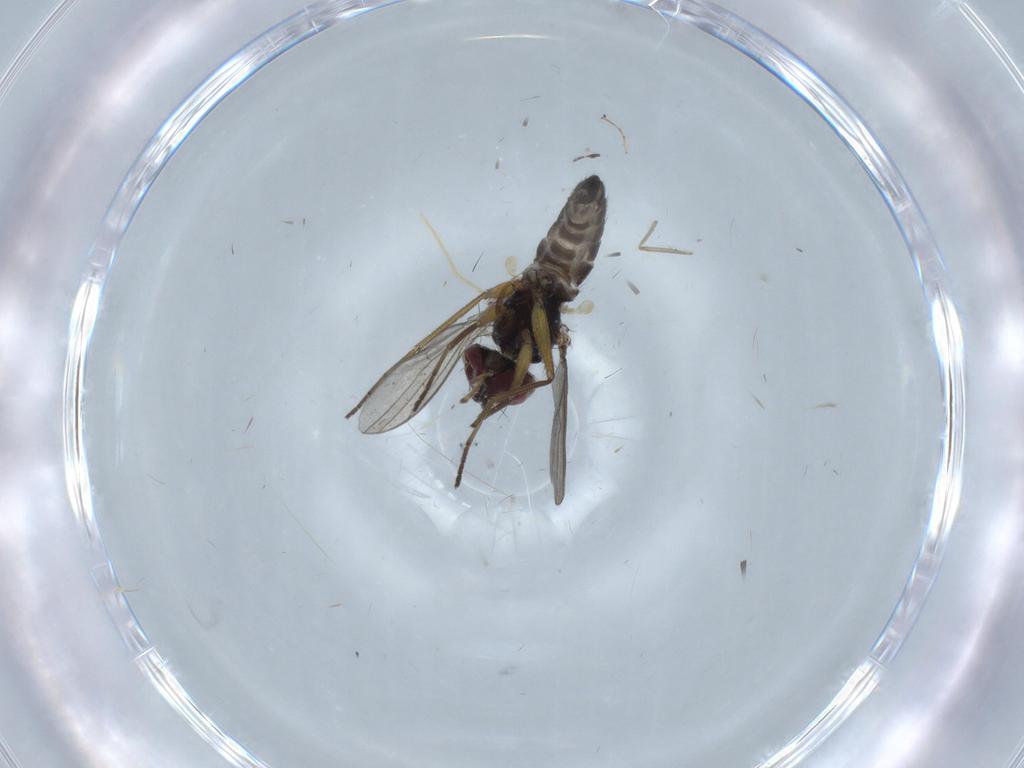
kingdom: Animalia
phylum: Arthropoda
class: Insecta
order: Diptera
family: Dolichopodidae
